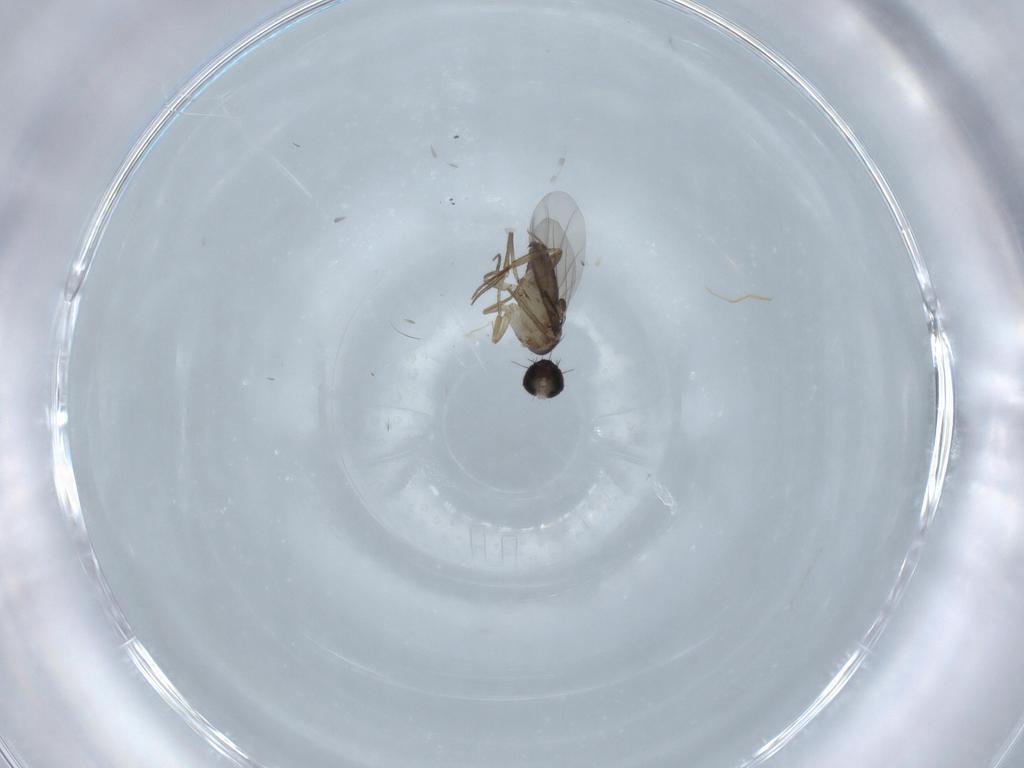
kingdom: Animalia
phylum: Arthropoda
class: Insecta
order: Diptera
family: Phoridae
